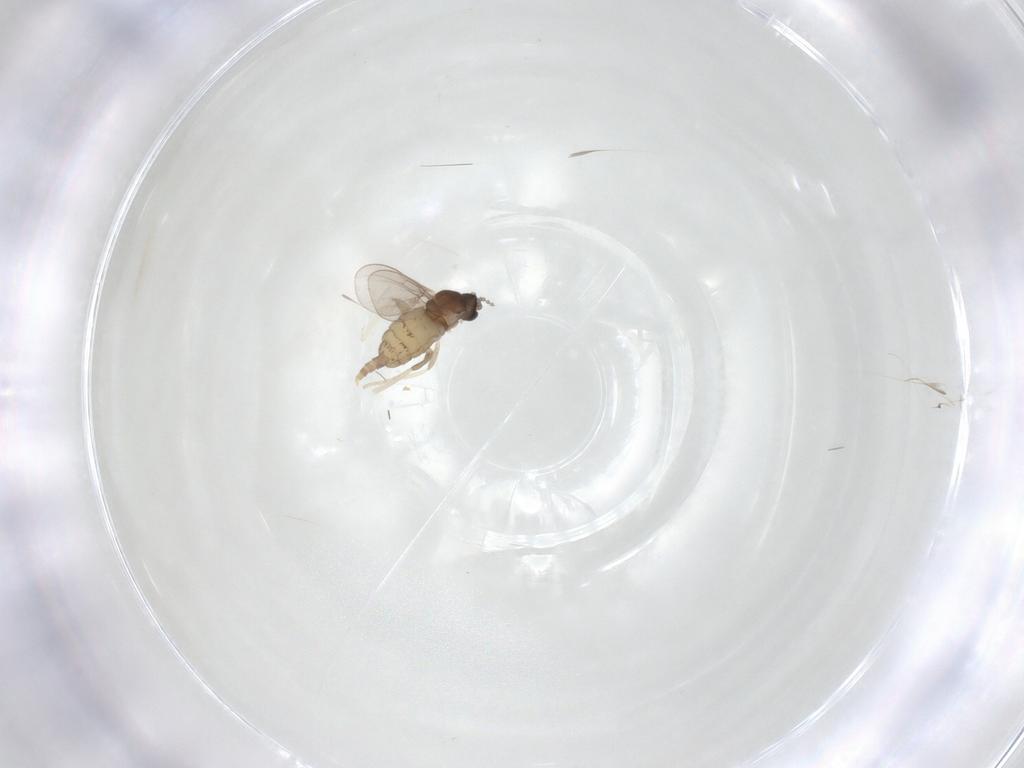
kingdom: Animalia
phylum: Arthropoda
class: Insecta
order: Diptera
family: Cecidomyiidae
